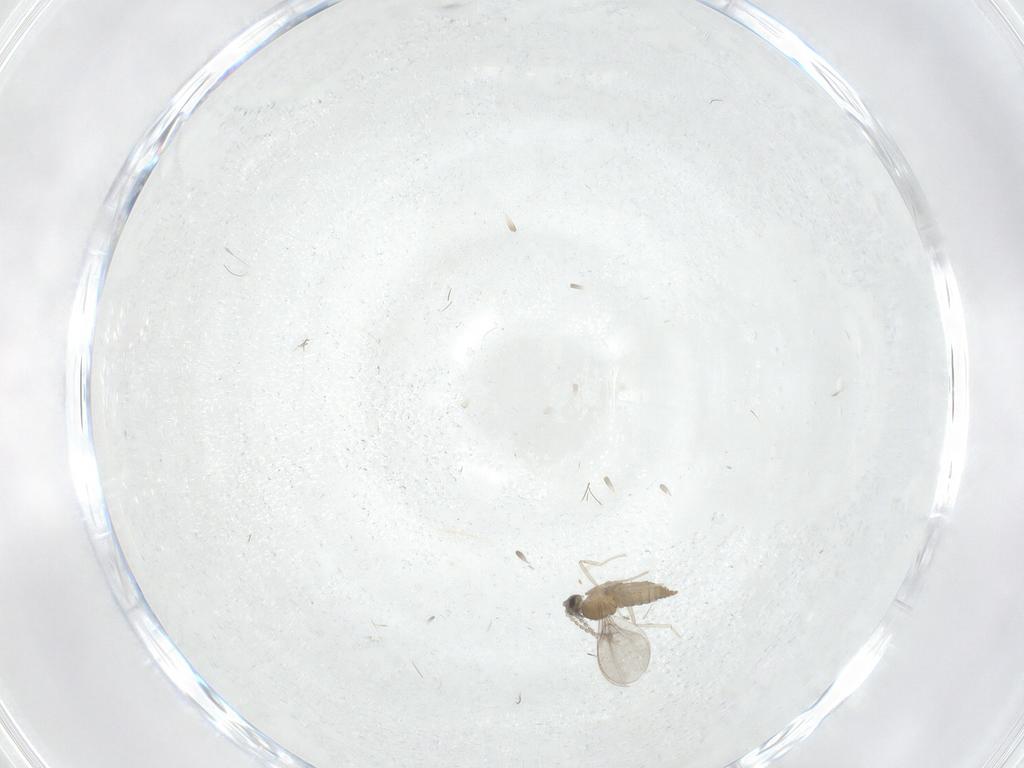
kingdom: Animalia
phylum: Arthropoda
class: Insecta
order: Diptera
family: Cecidomyiidae
